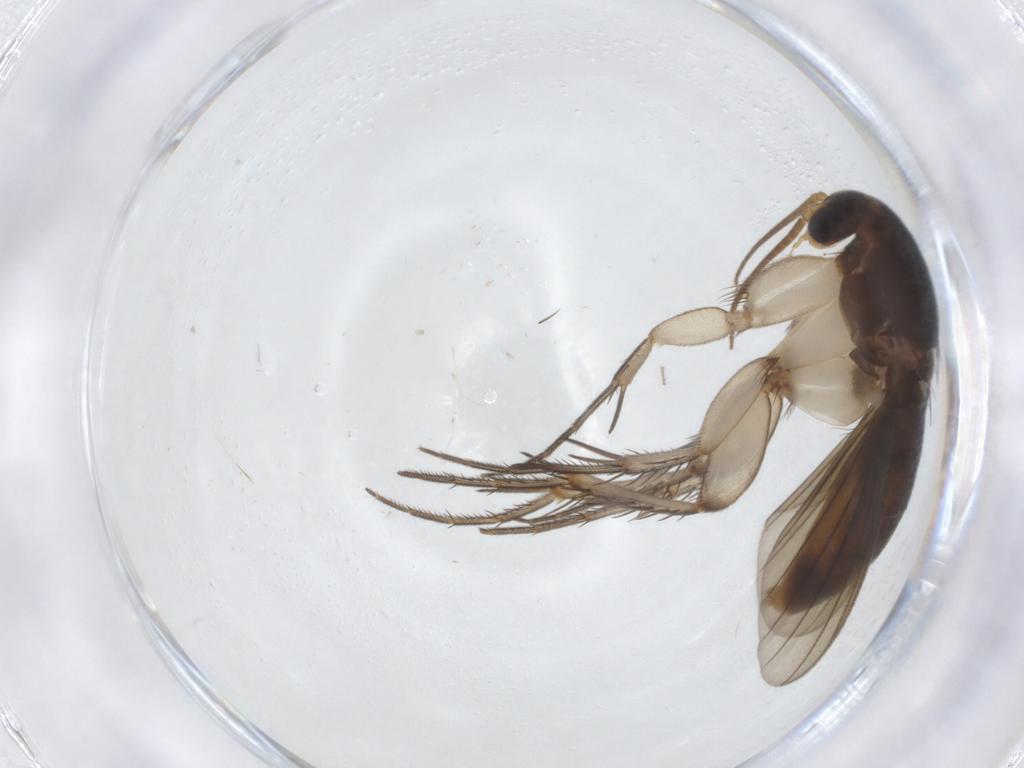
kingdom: Animalia
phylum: Arthropoda
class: Insecta
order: Diptera
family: Mycetophilidae
